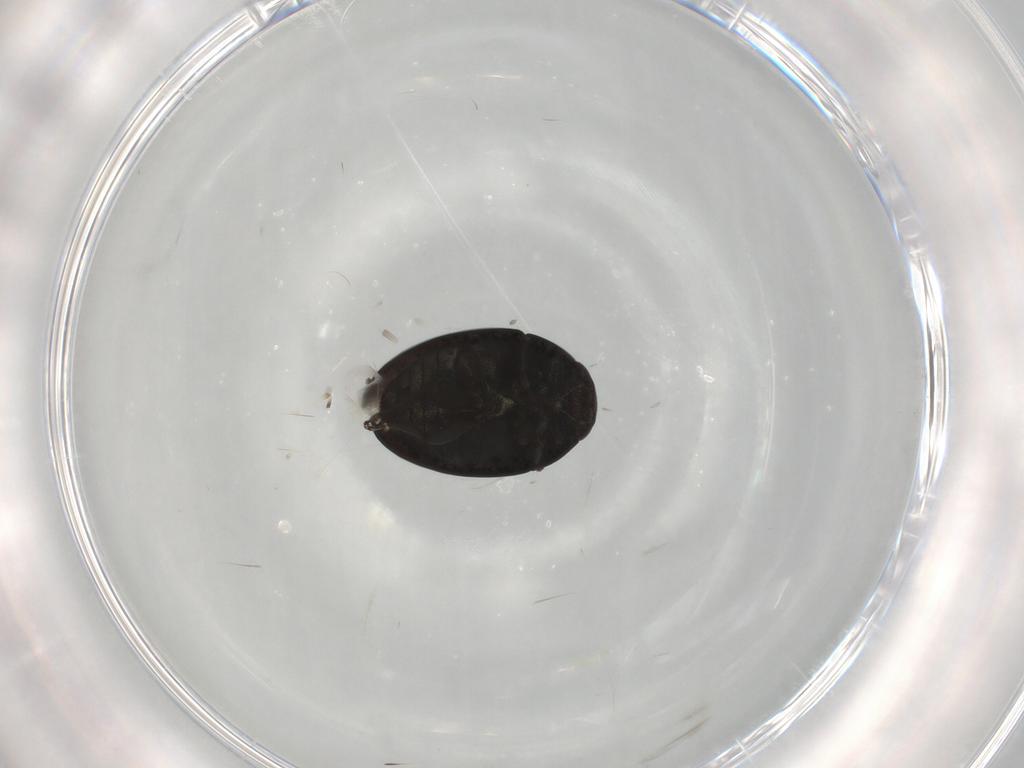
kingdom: Animalia
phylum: Arthropoda
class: Insecta
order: Coleoptera
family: Phalacridae
